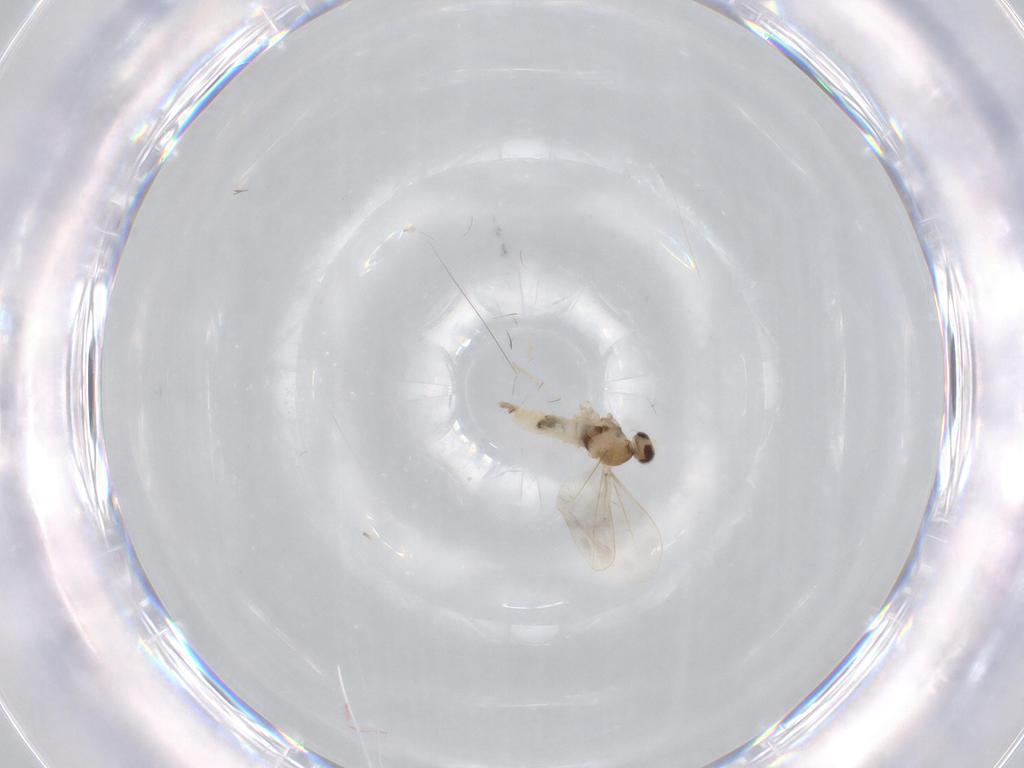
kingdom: Animalia
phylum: Arthropoda
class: Insecta
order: Diptera
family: Cecidomyiidae
